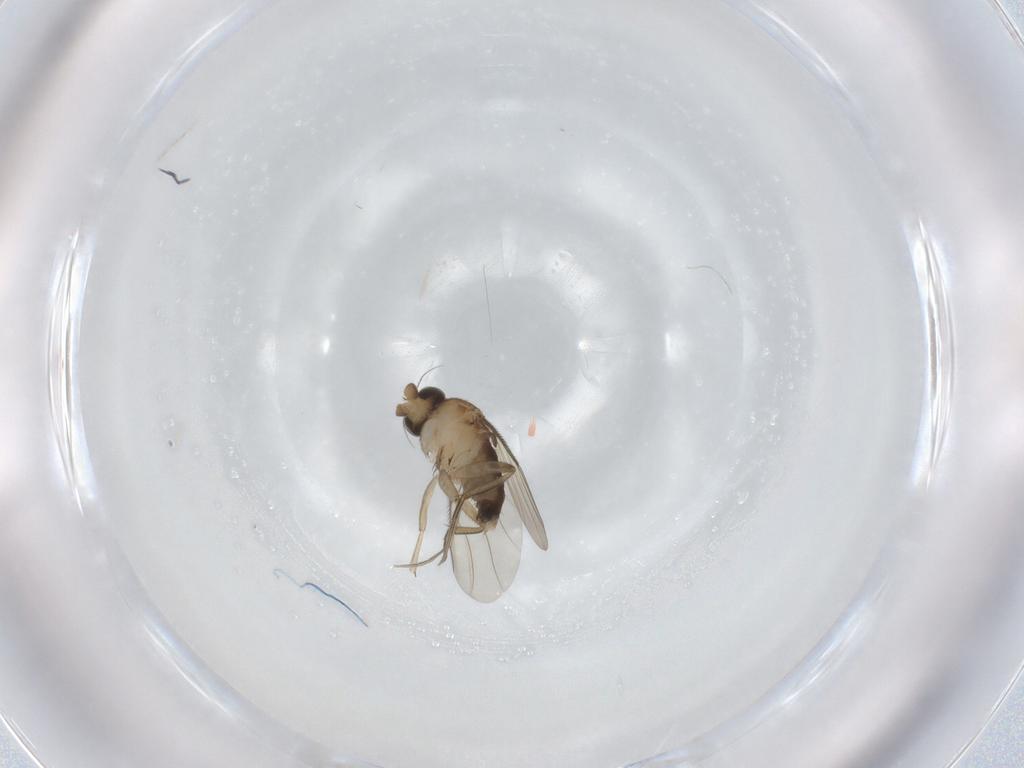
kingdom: Animalia
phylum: Arthropoda
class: Insecta
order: Diptera
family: Phoridae
